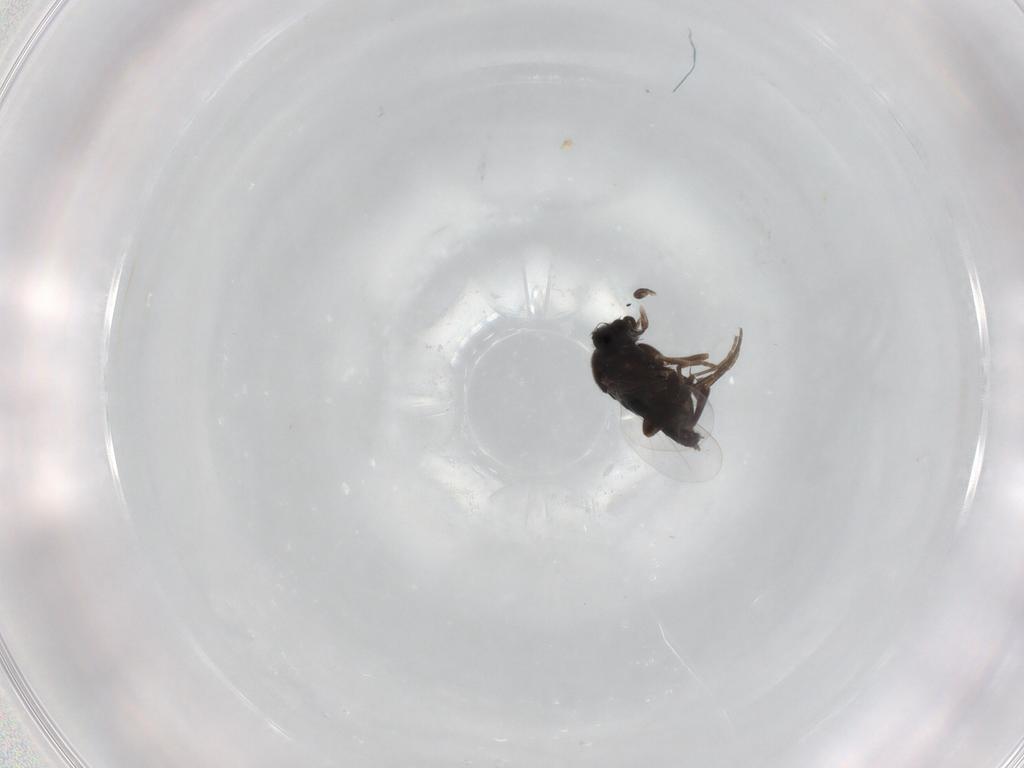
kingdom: Animalia
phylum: Arthropoda
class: Insecta
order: Diptera
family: Phoridae
